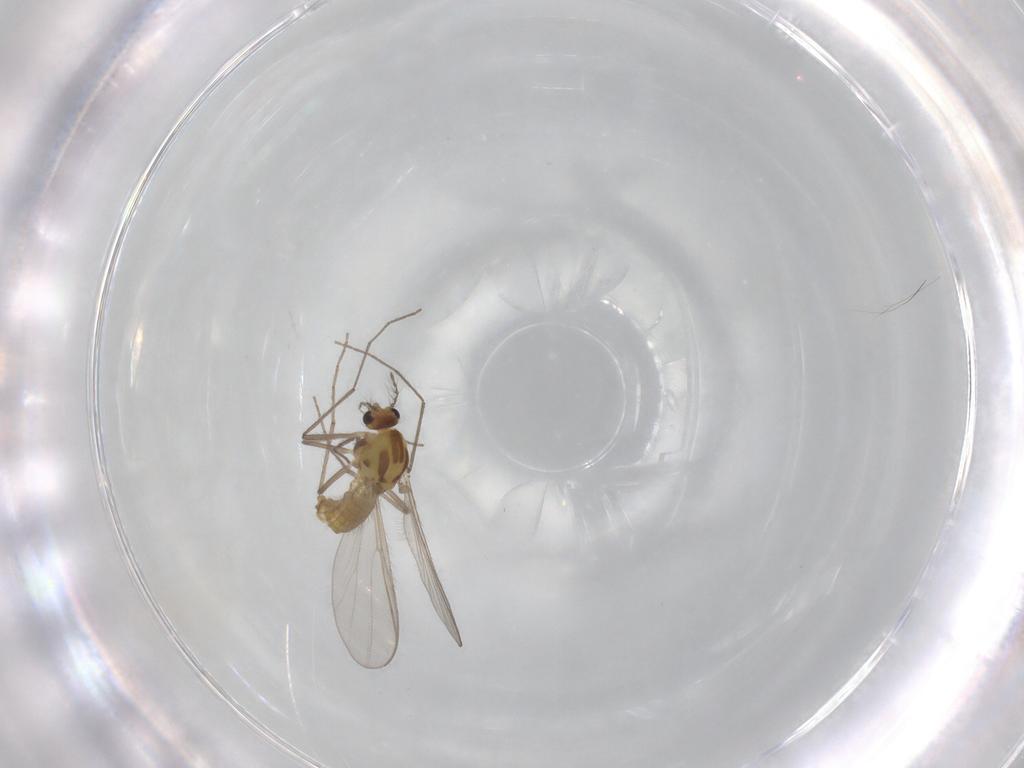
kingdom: Animalia
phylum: Arthropoda
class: Insecta
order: Diptera
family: Chironomidae
